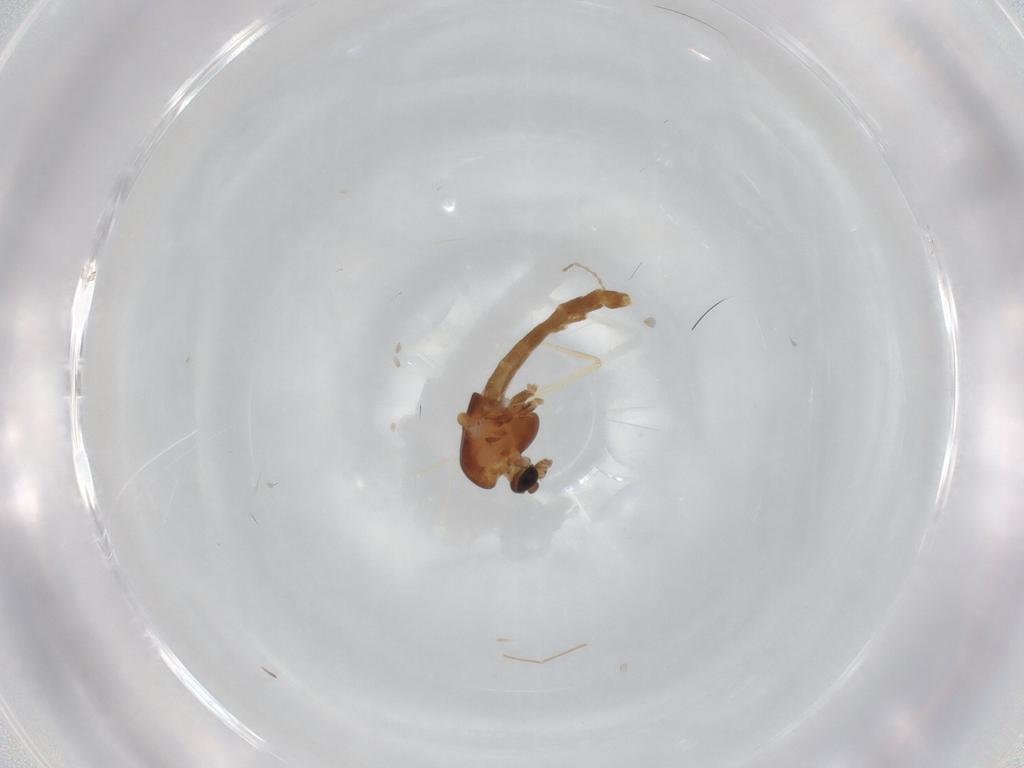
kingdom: Animalia
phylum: Arthropoda
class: Insecta
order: Diptera
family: Chironomidae
